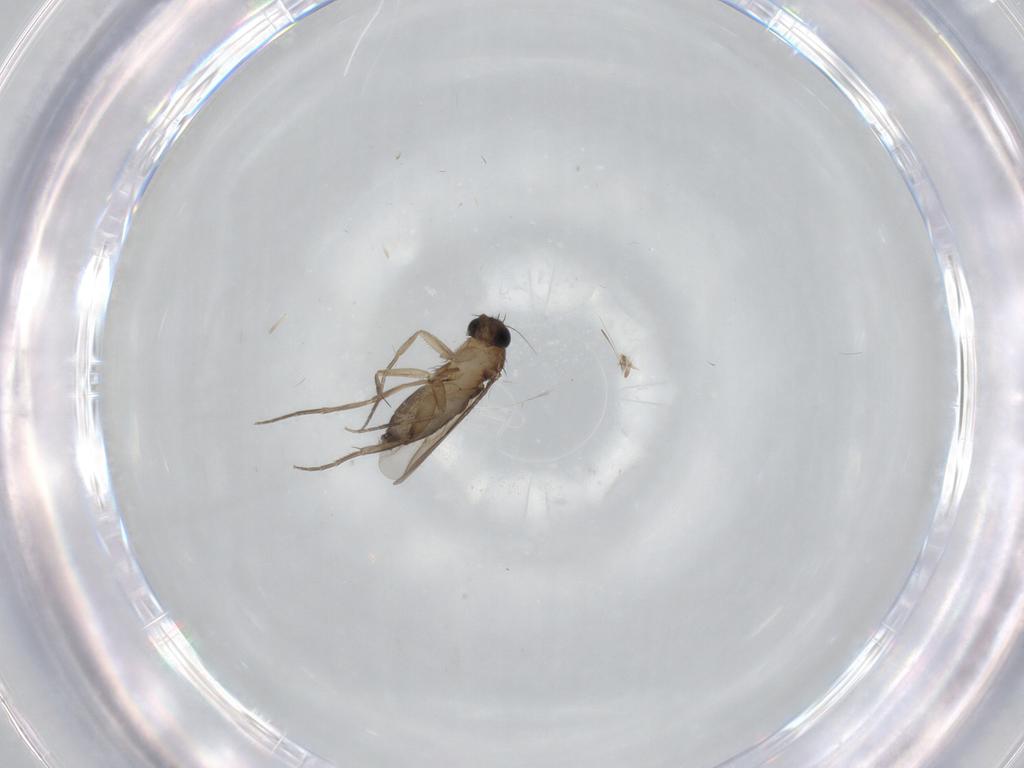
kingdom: Animalia
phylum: Arthropoda
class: Insecta
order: Diptera
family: Phoridae
